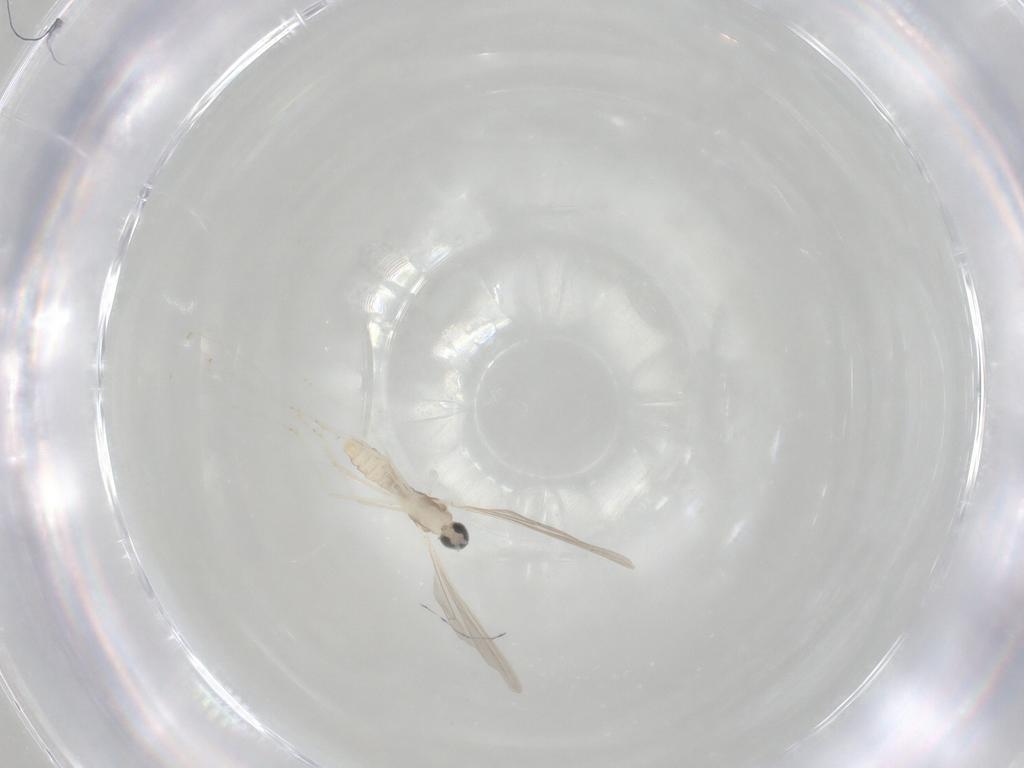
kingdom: Animalia
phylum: Arthropoda
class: Insecta
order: Diptera
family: Cecidomyiidae
